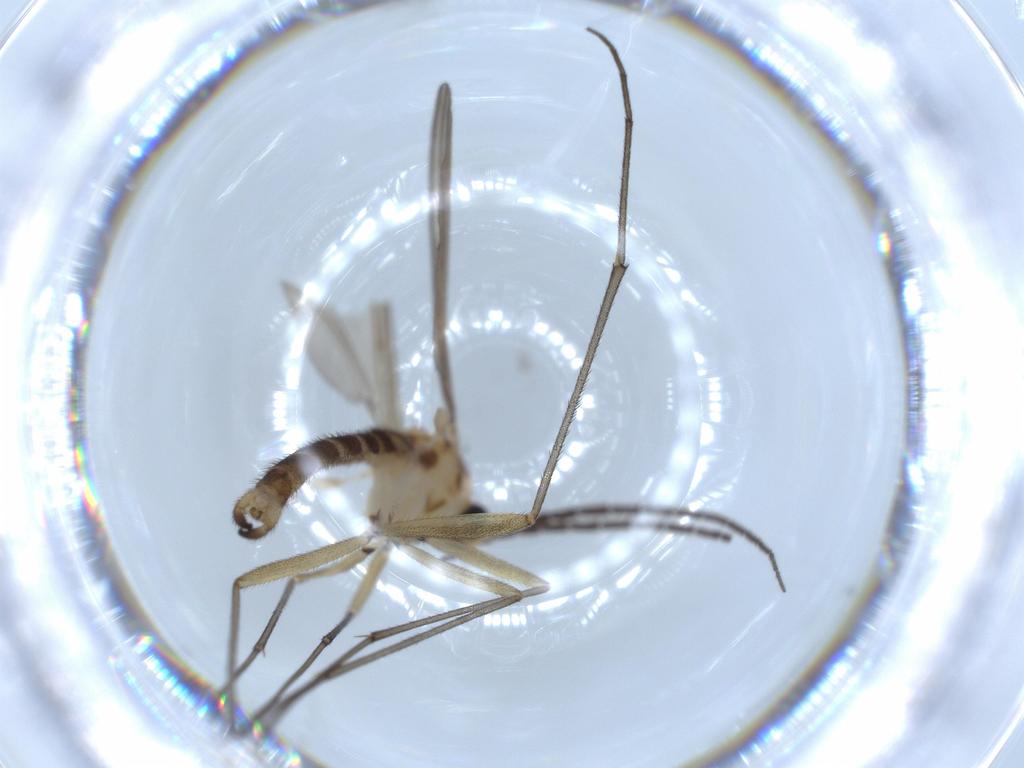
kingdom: Animalia
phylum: Arthropoda
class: Insecta
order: Diptera
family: Sciaridae
